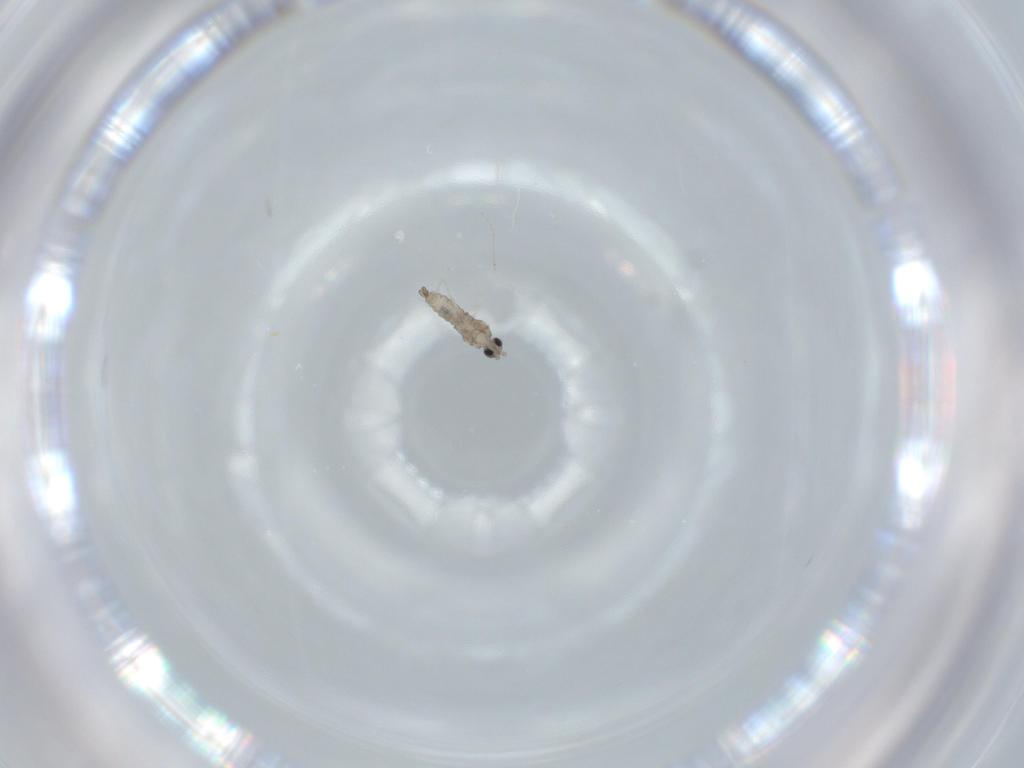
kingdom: Animalia
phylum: Arthropoda
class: Insecta
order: Diptera
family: Cecidomyiidae
